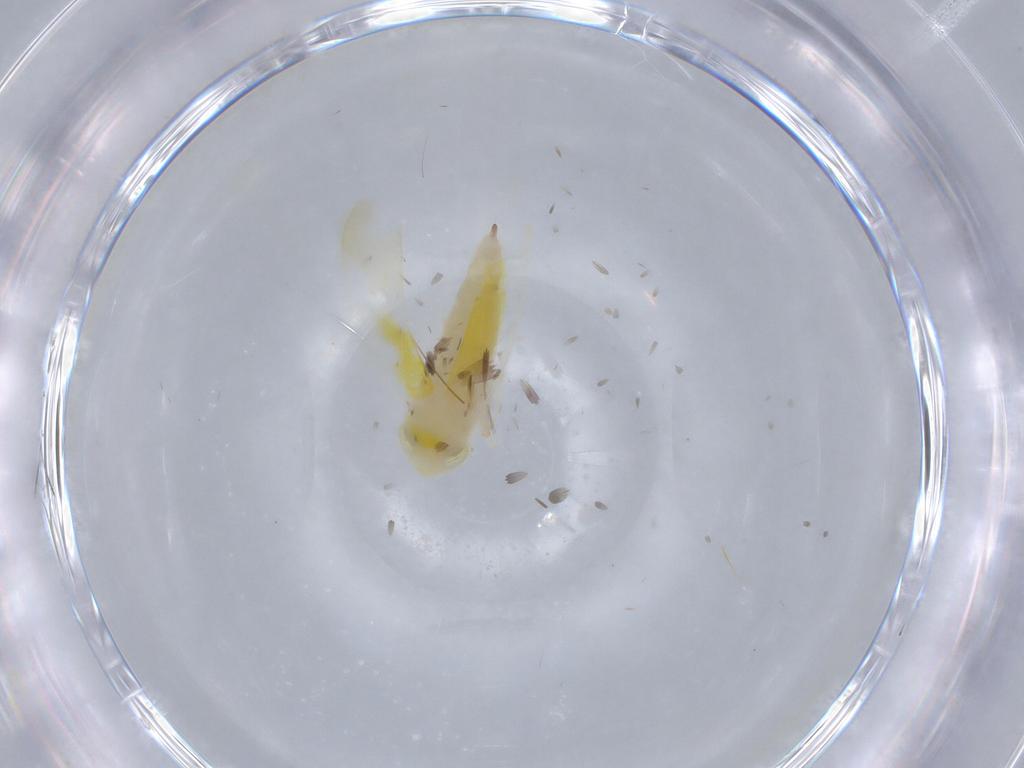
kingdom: Animalia
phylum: Arthropoda
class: Insecta
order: Hemiptera
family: Cicadellidae
